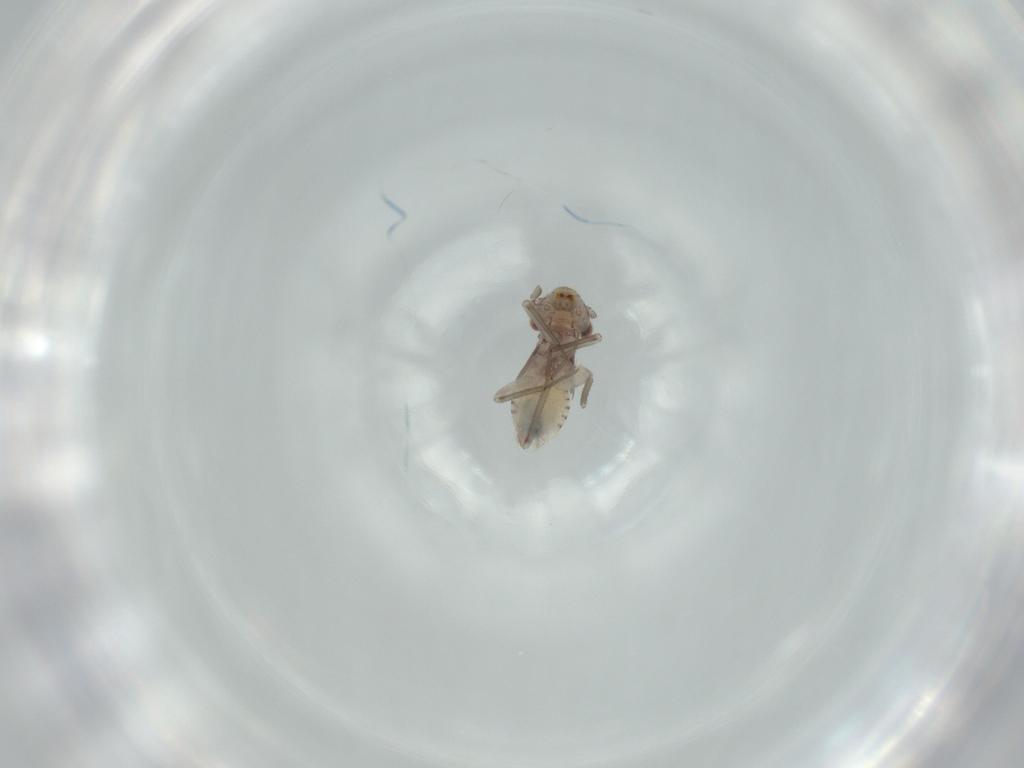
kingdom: Animalia
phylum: Arthropoda
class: Insecta
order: Psocodea
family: Lepidopsocidae
